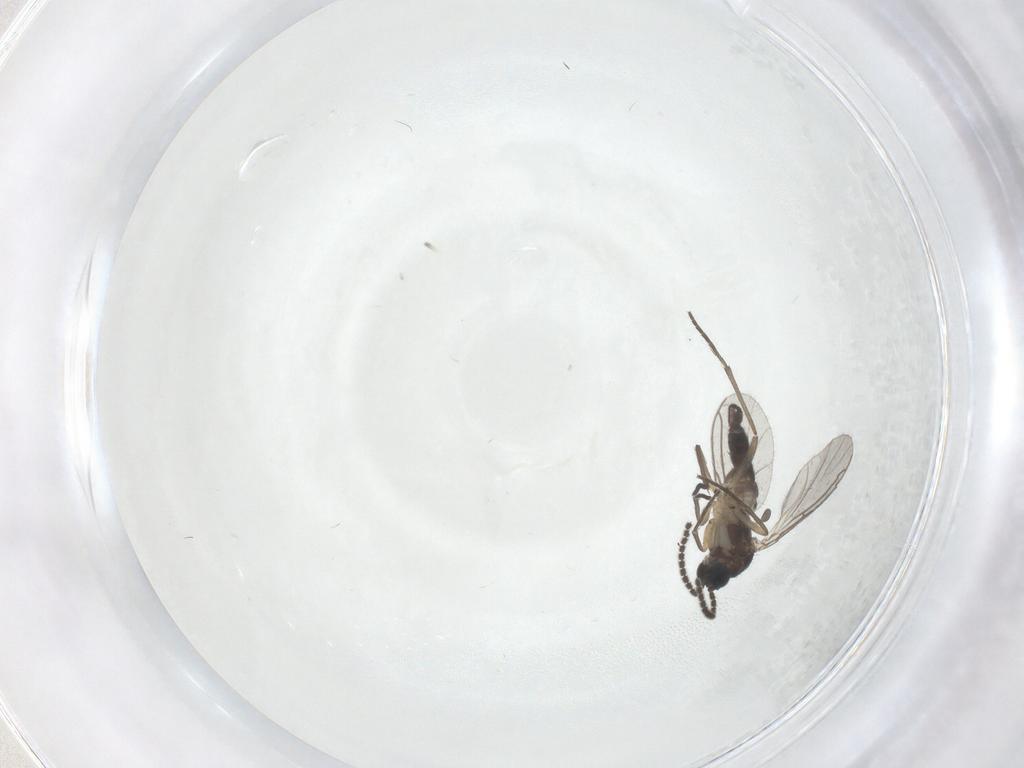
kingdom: Animalia
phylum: Arthropoda
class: Insecta
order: Diptera
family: Sciaridae
